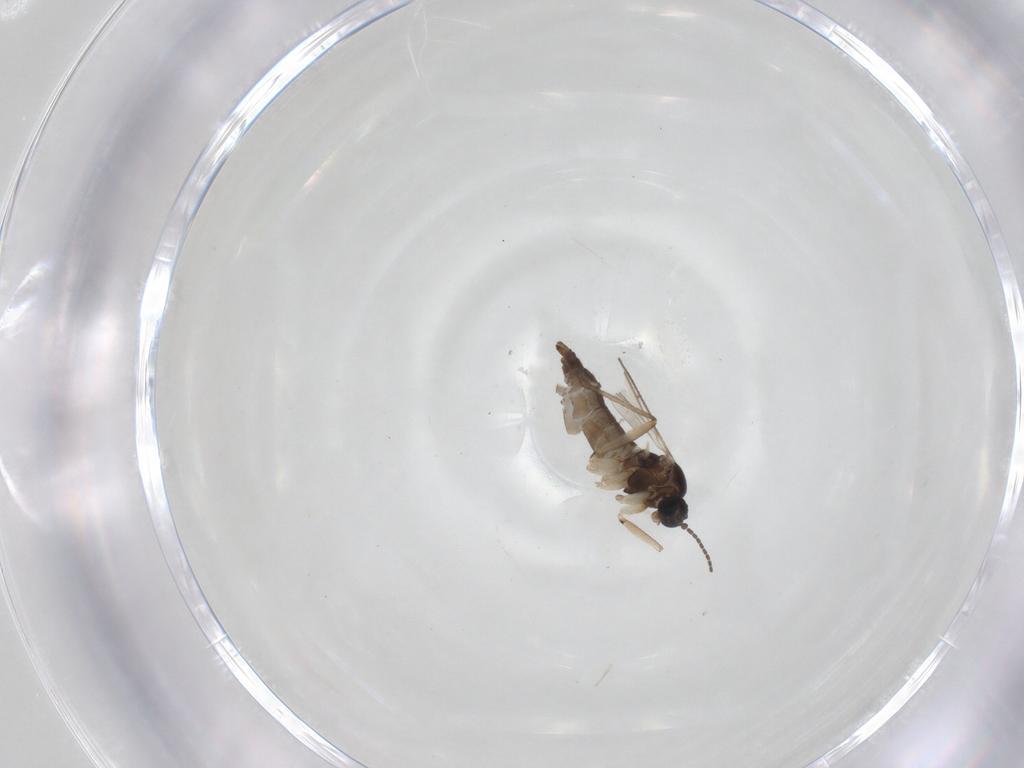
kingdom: Animalia
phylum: Arthropoda
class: Insecta
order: Diptera
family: Sciaridae
